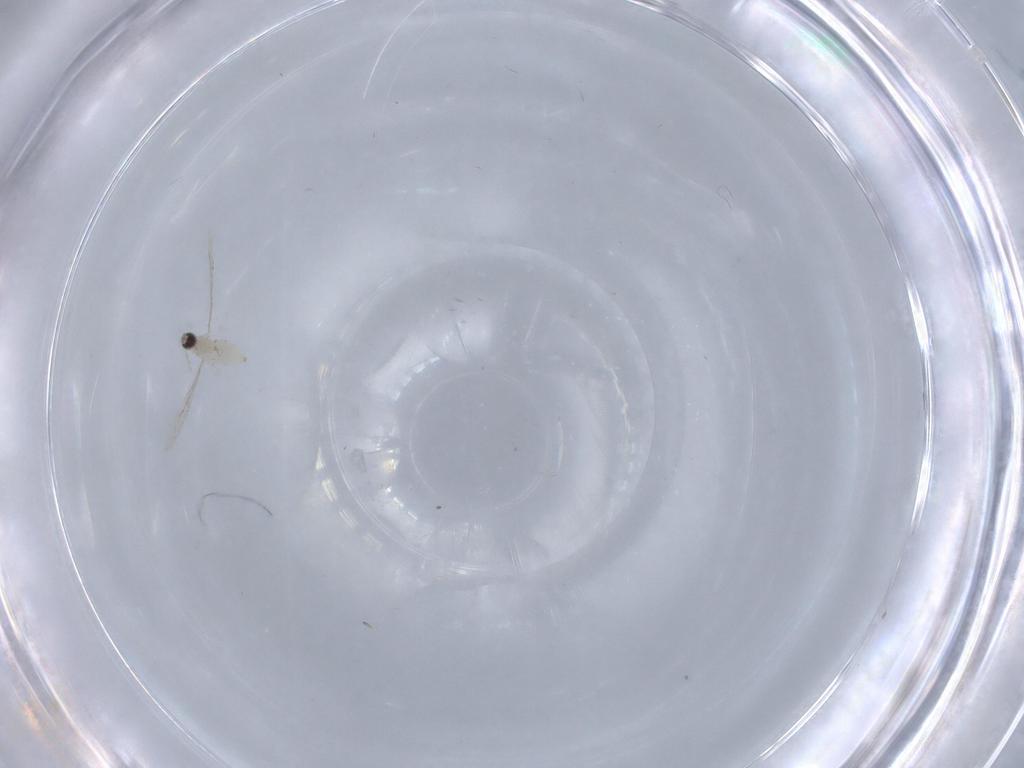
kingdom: Animalia
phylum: Arthropoda
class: Insecta
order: Diptera
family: Cecidomyiidae
